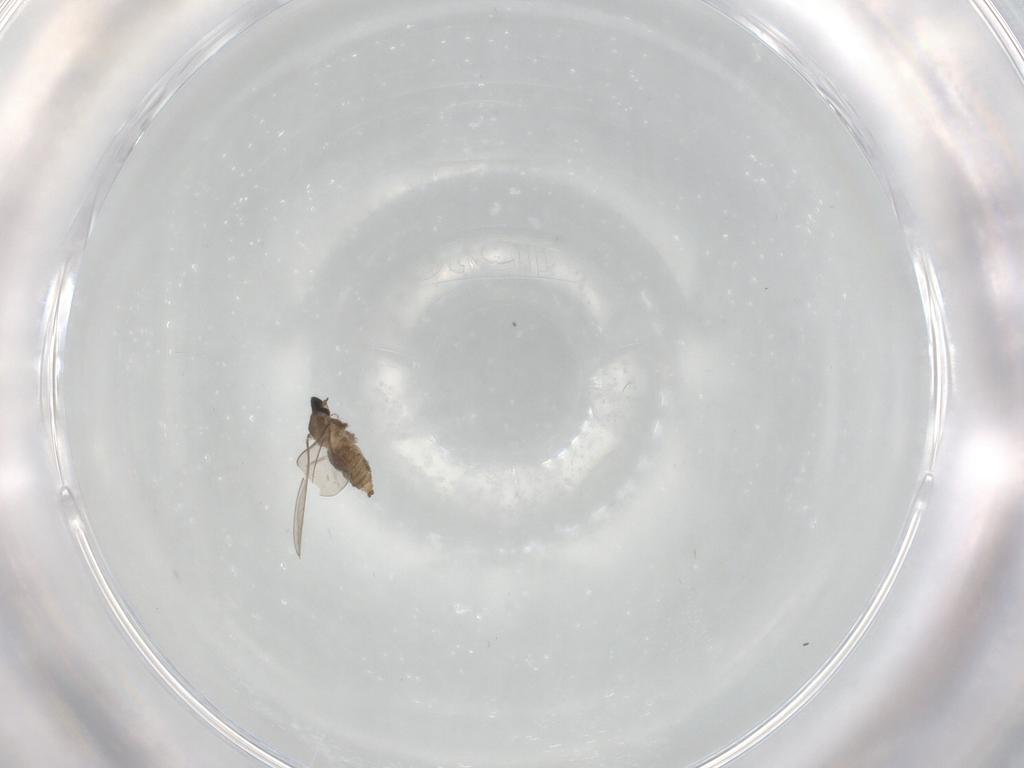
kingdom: Animalia
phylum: Arthropoda
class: Insecta
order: Diptera
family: Cecidomyiidae
